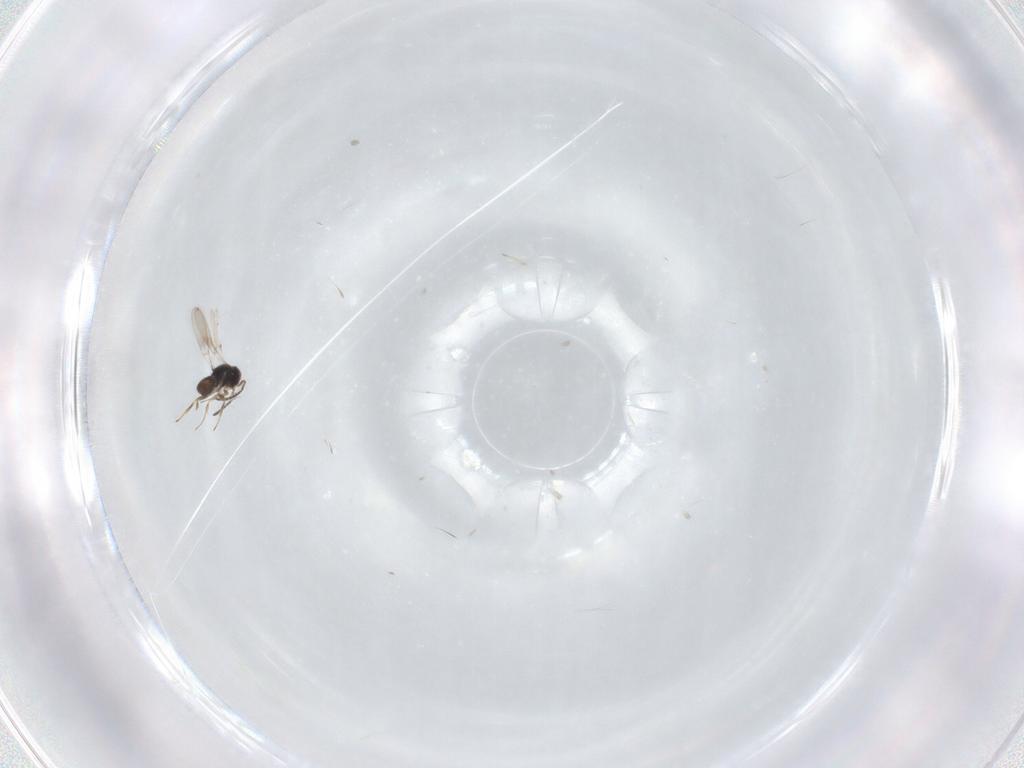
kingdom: Animalia
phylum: Arthropoda
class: Insecta
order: Hymenoptera
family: Scelionidae
